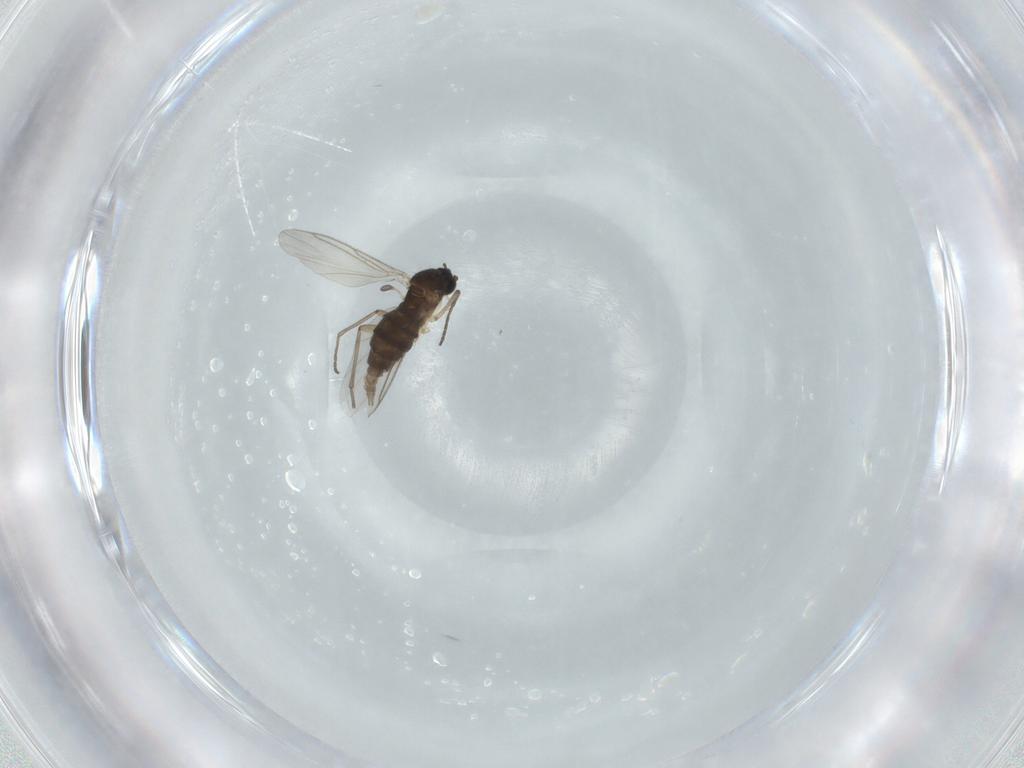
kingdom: Animalia
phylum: Arthropoda
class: Insecta
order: Diptera
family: Sciaridae
